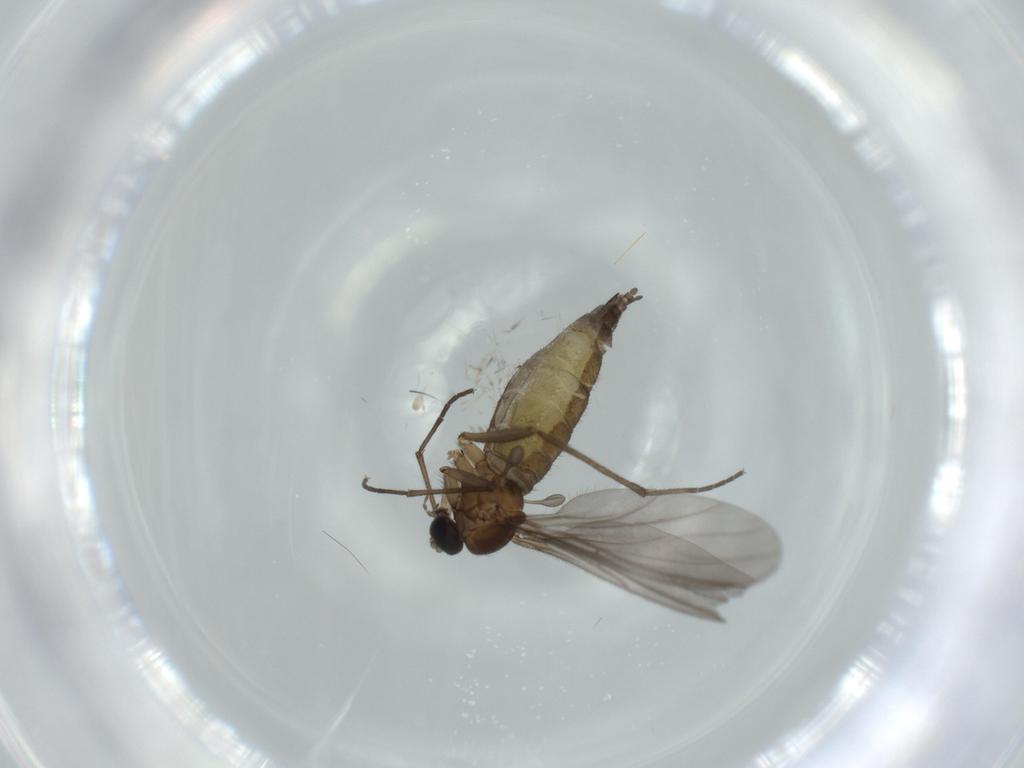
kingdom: Animalia
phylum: Arthropoda
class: Insecta
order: Diptera
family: Sciaridae
